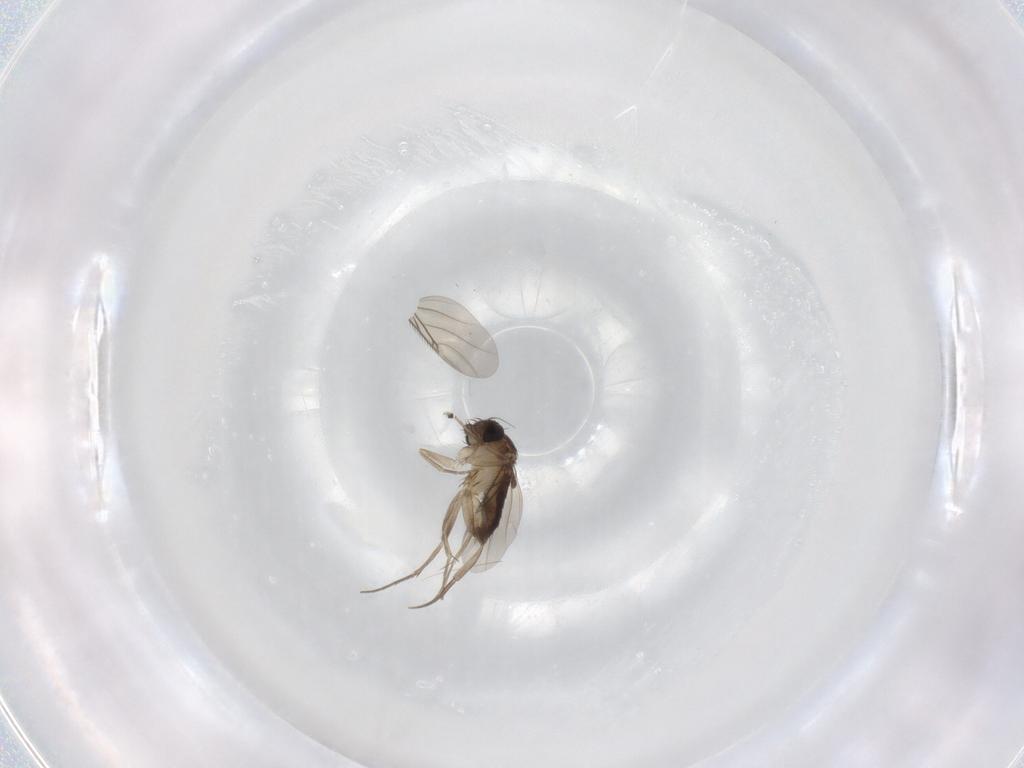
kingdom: Animalia
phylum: Arthropoda
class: Insecta
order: Diptera
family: Phoridae
